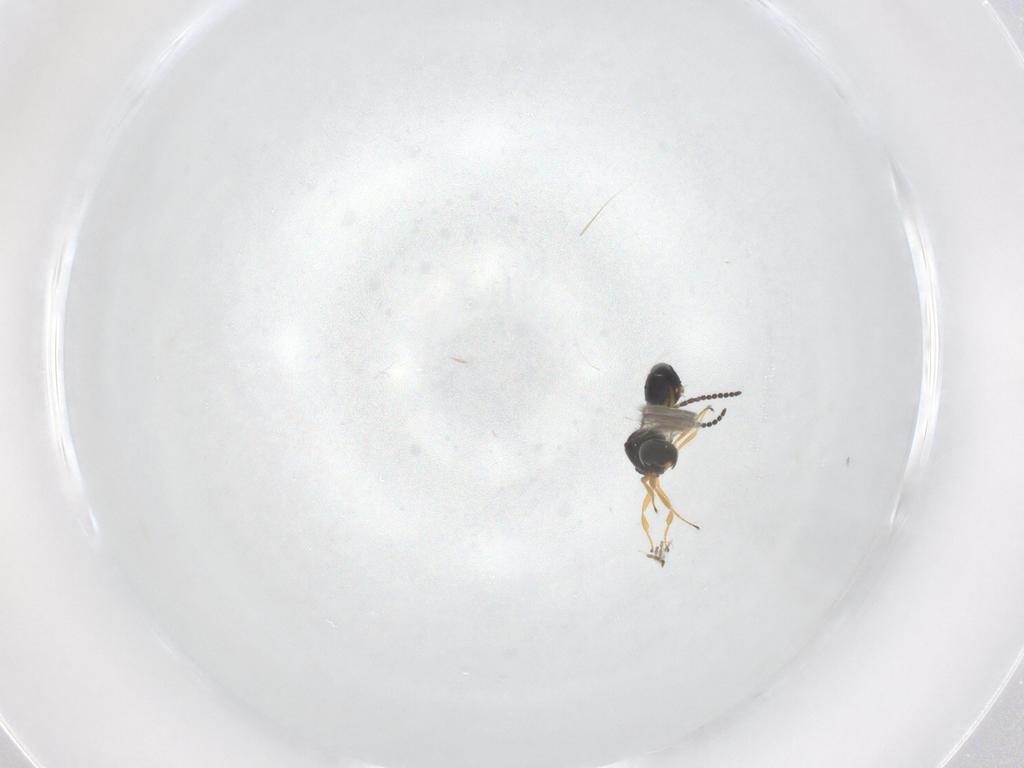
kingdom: Animalia
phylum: Arthropoda
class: Insecta
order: Hymenoptera
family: Scelionidae
